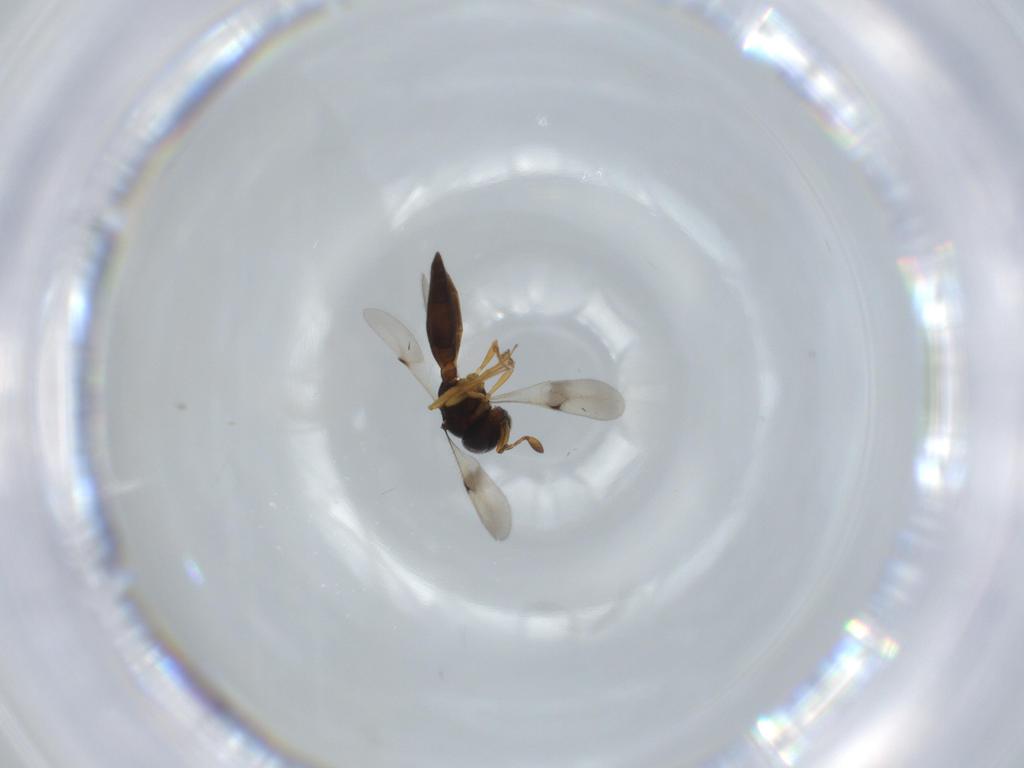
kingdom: Animalia
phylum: Arthropoda
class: Insecta
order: Hymenoptera
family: Scelionidae
